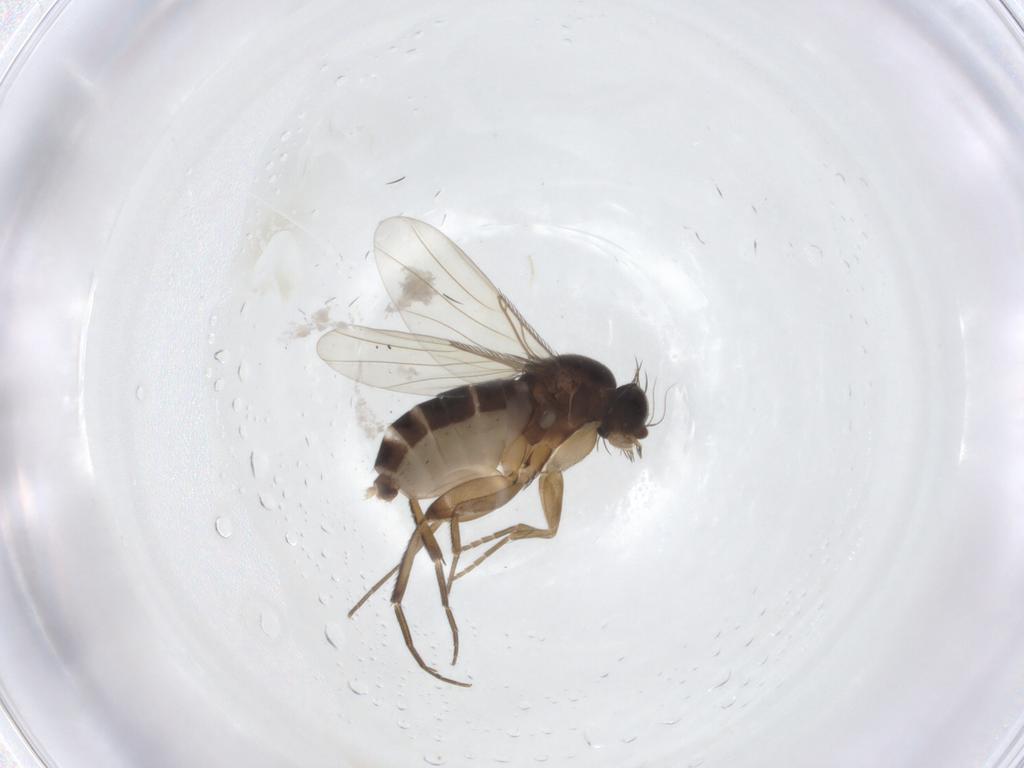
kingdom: Animalia
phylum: Arthropoda
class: Insecta
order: Diptera
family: Phoridae
